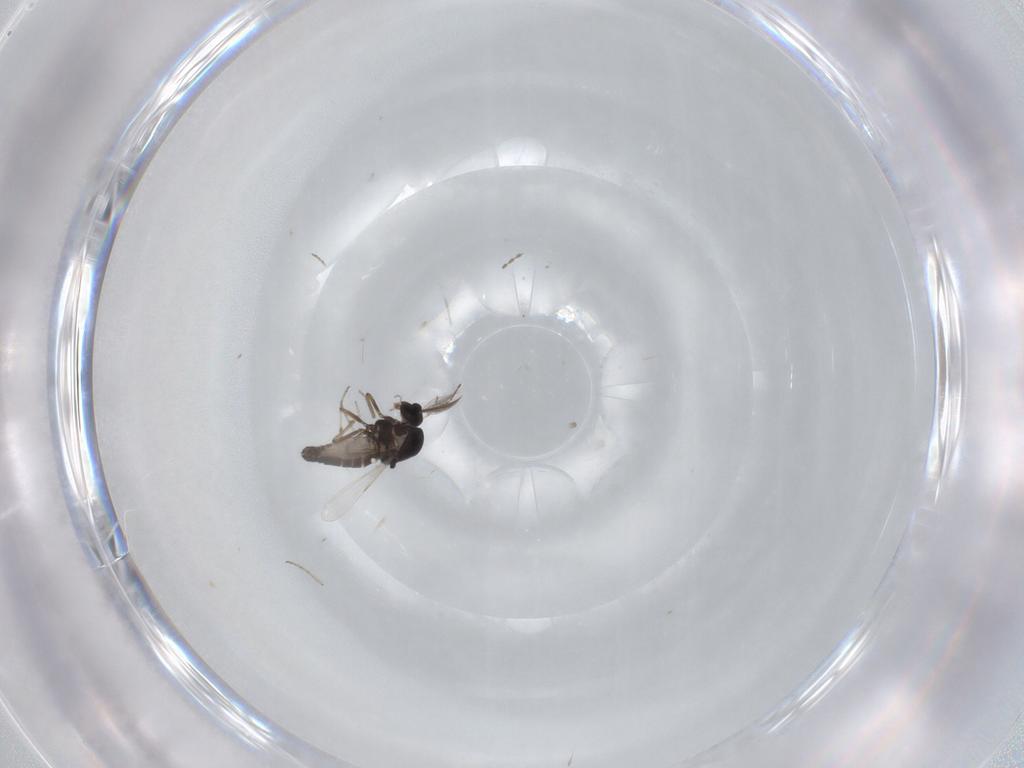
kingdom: Animalia
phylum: Arthropoda
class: Insecta
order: Diptera
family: Ceratopogonidae
